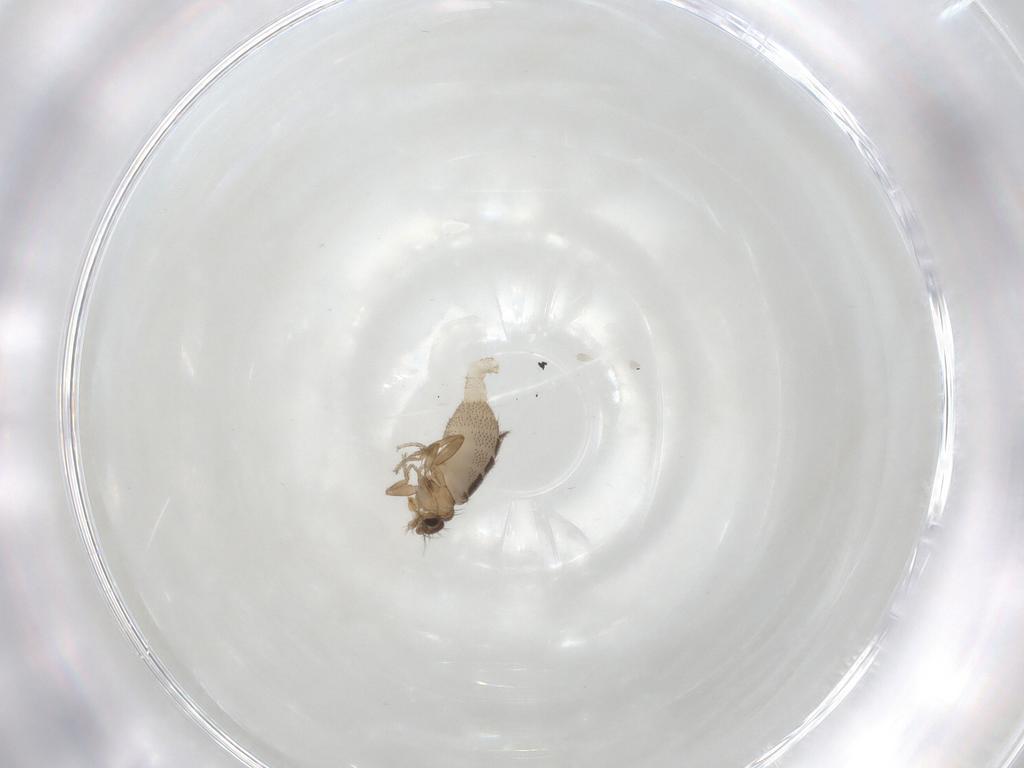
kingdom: Animalia
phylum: Arthropoda
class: Insecta
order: Diptera
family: Phoridae
